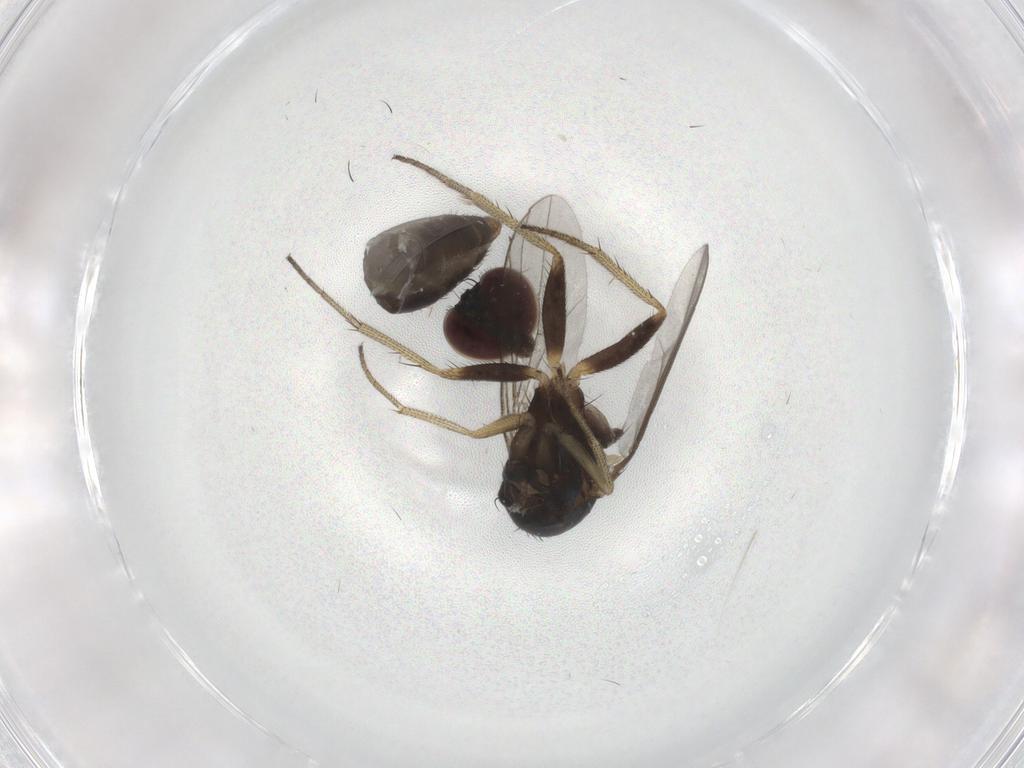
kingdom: Animalia
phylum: Arthropoda
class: Insecta
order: Diptera
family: Dolichopodidae
